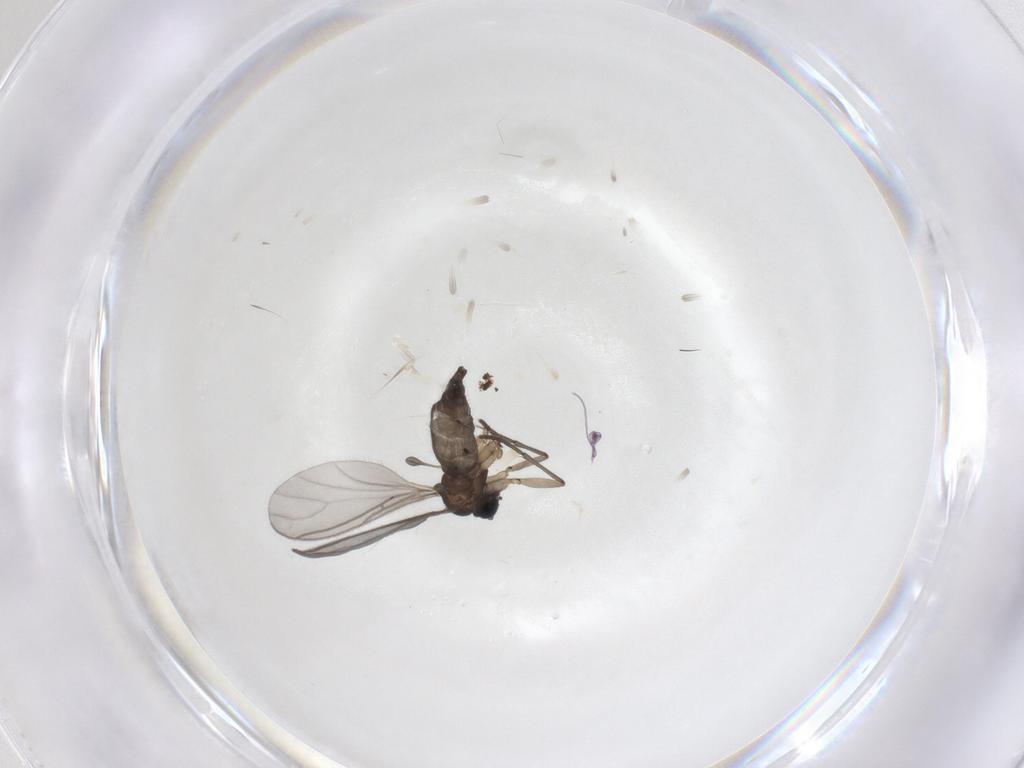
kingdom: Animalia
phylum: Arthropoda
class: Insecta
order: Diptera
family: Sciaridae
